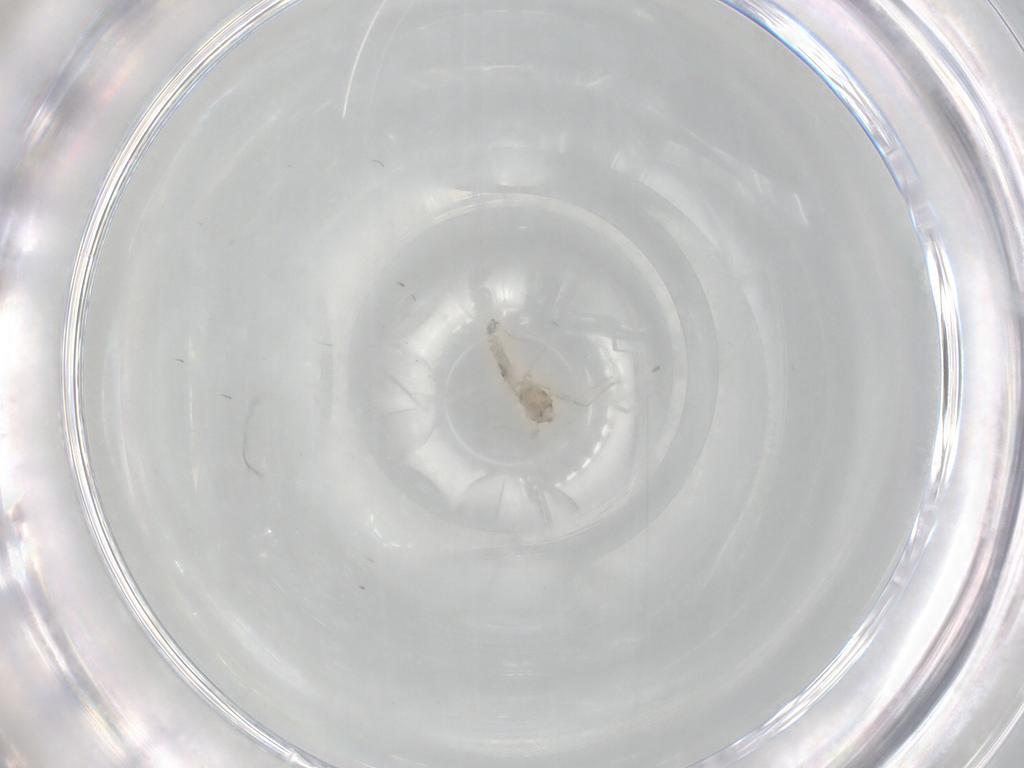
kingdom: Animalia
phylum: Arthropoda
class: Insecta
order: Diptera
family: Cecidomyiidae
